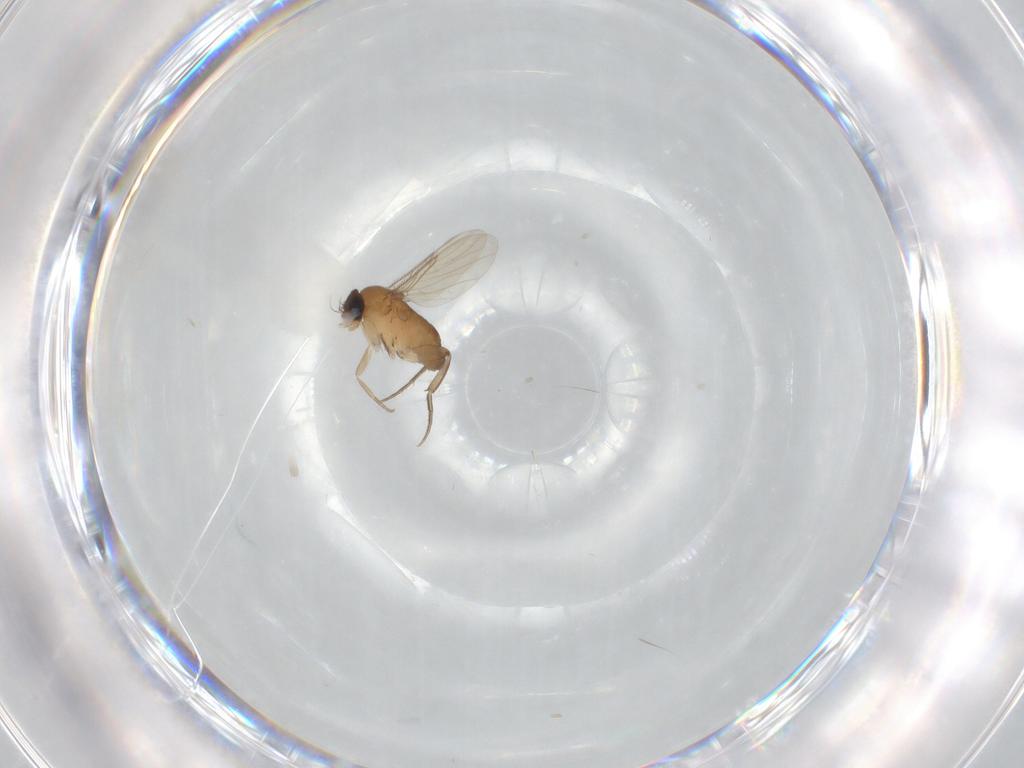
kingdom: Animalia
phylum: Arthropoda
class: Insecta
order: Diptera
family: Phoridae
